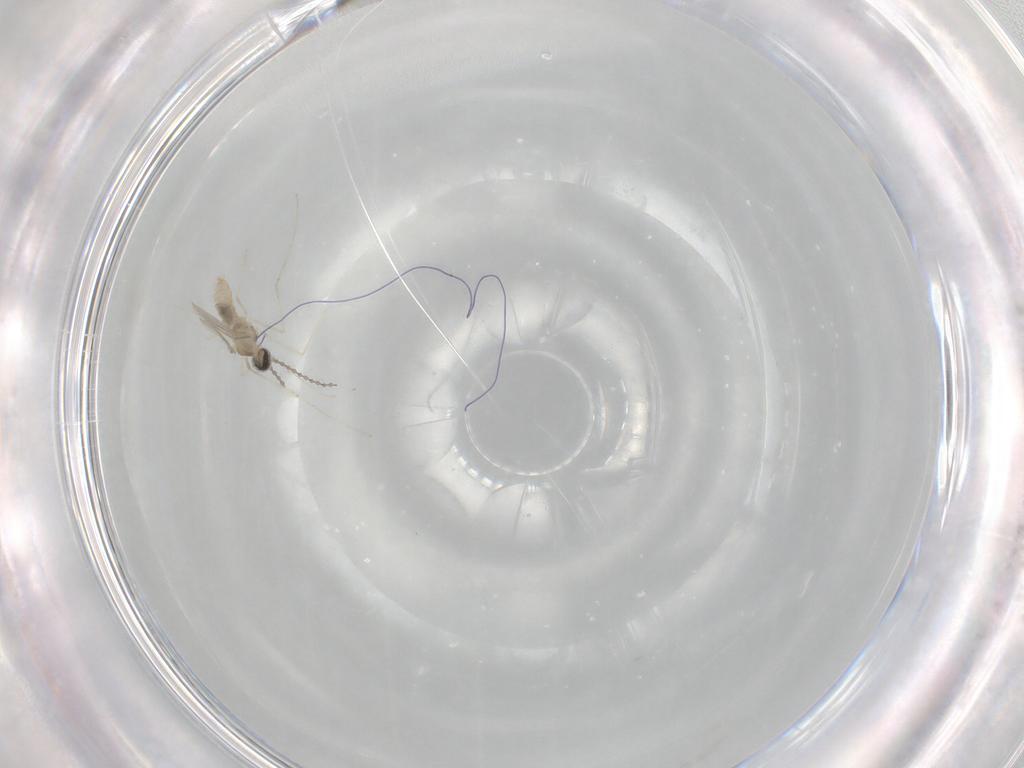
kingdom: Animalia
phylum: Arthropoda
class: Insecta
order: Diptera
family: Cecidomyiidae
